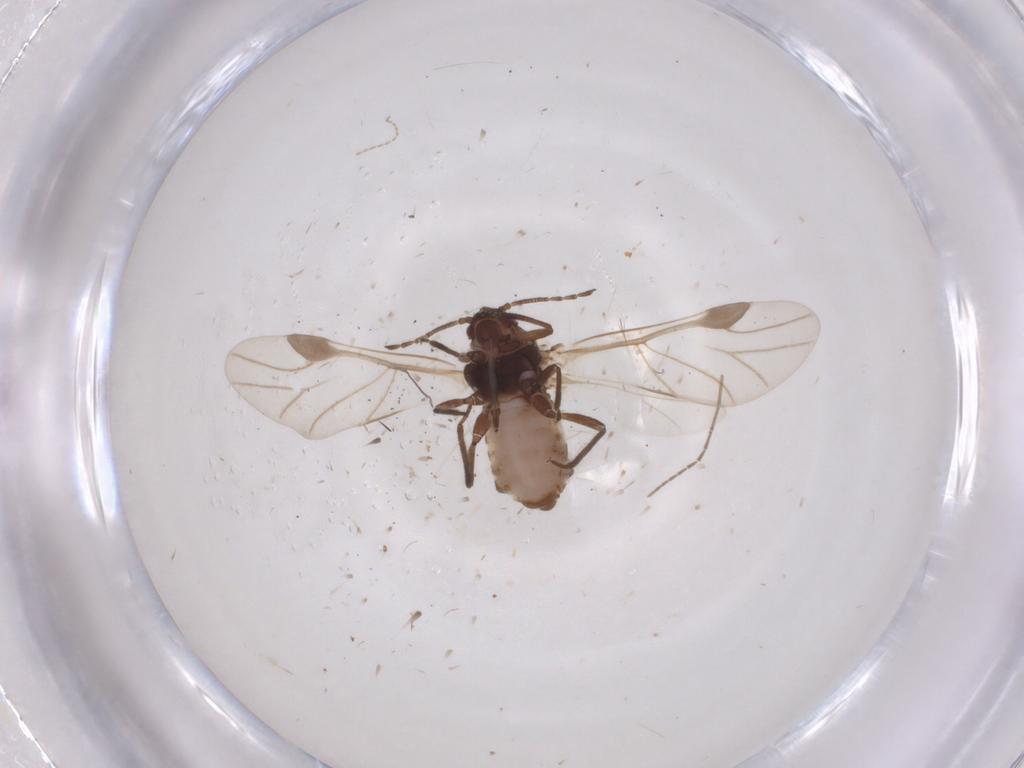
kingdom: Animalia
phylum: Arthropoda
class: Insecta
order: Hemiptera
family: Aphididae
